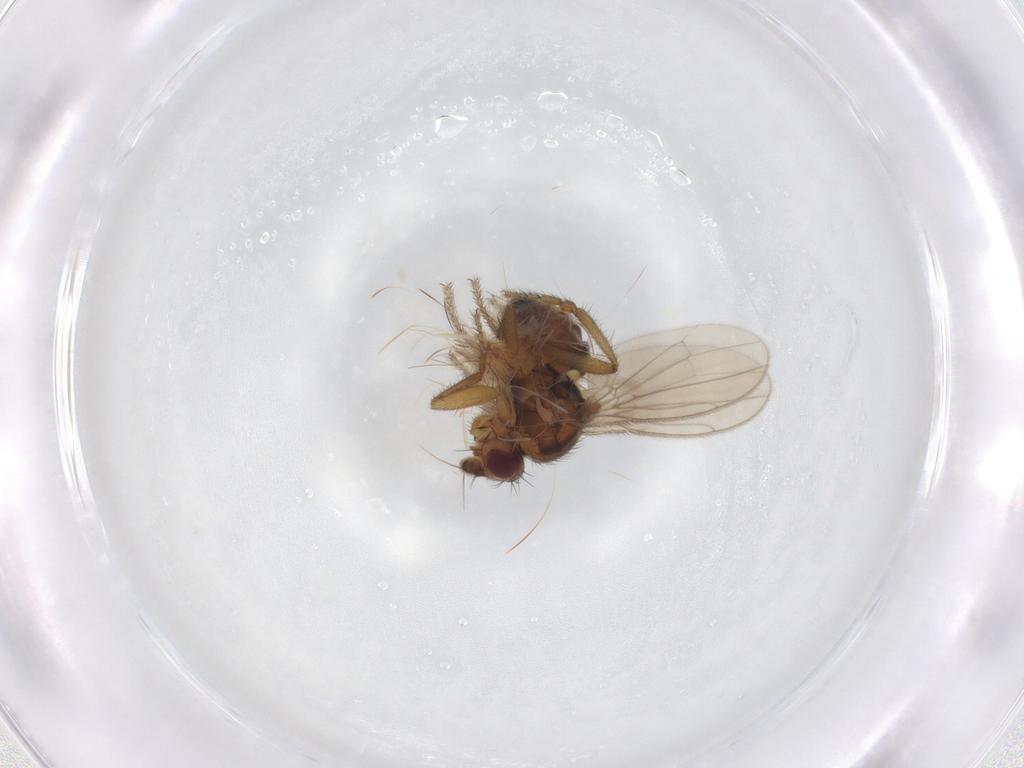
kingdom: Animalia
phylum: Arthropoda
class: Insecta
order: Diptera
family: Sphaeroceridae
